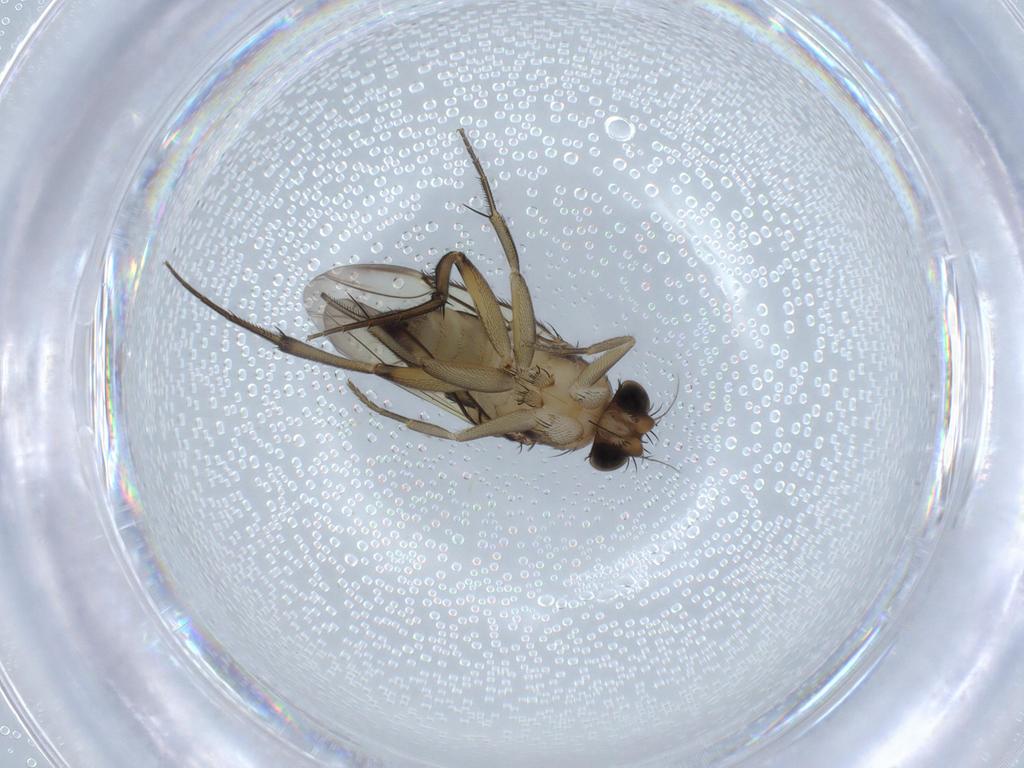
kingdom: Animalia
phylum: Arthropoda
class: Insecta
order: Diptera
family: Phoridae
